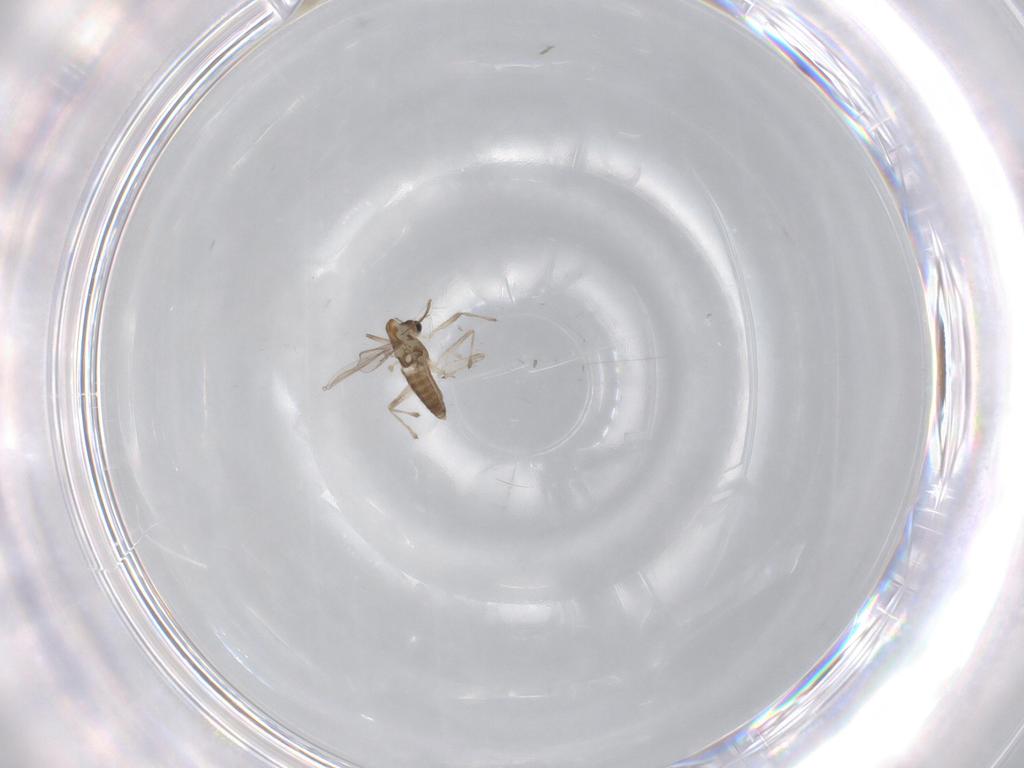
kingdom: Animalia
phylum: Arthropoda
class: Insecta
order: Diptera
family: Chironomidae
